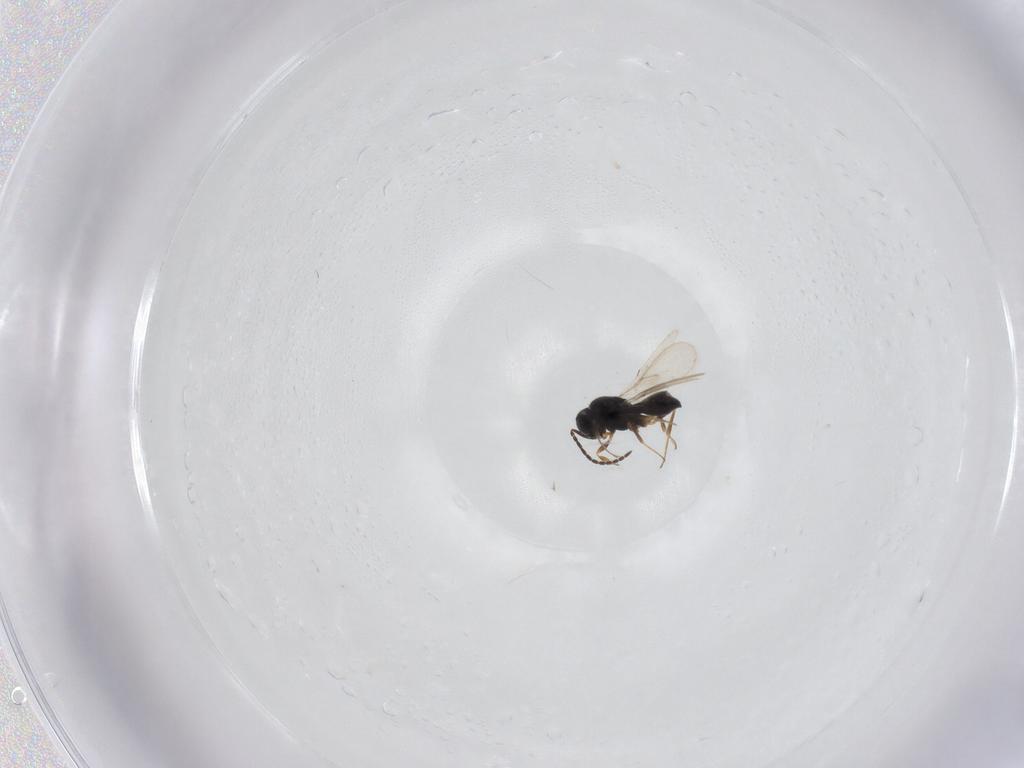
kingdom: Animalia
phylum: Arthropoda
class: Insecta
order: Hymenoptera
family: Scelionidae
